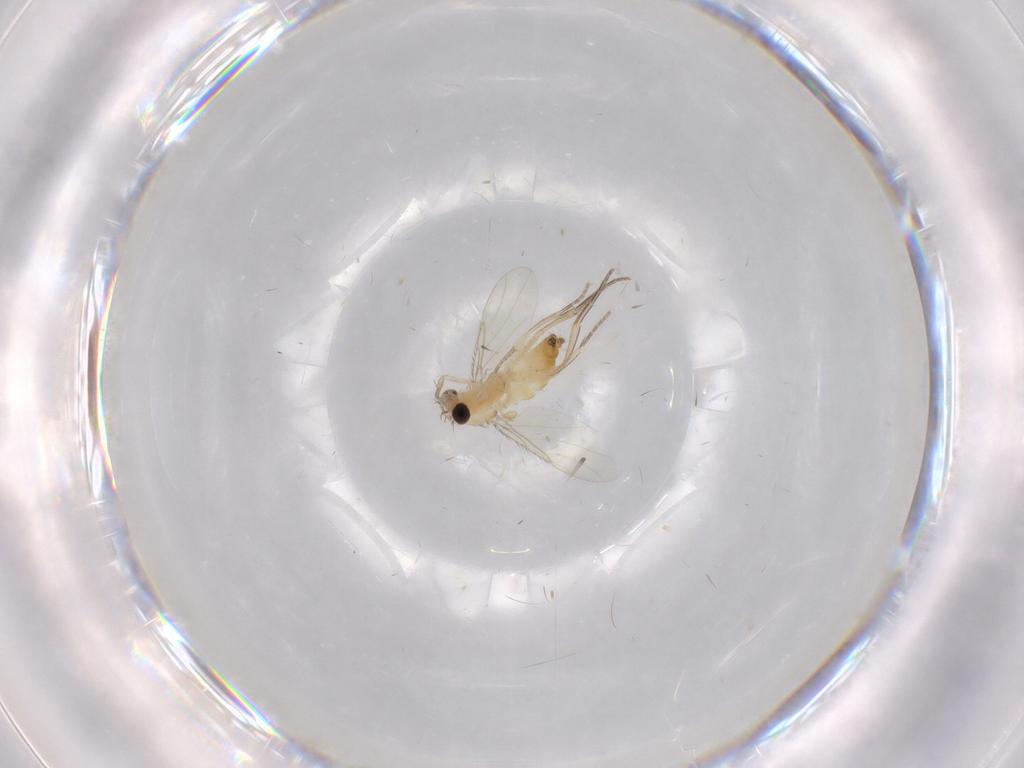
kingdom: Animalia
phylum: Arthropoda
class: Insecta
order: Diptera
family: Phoridae
